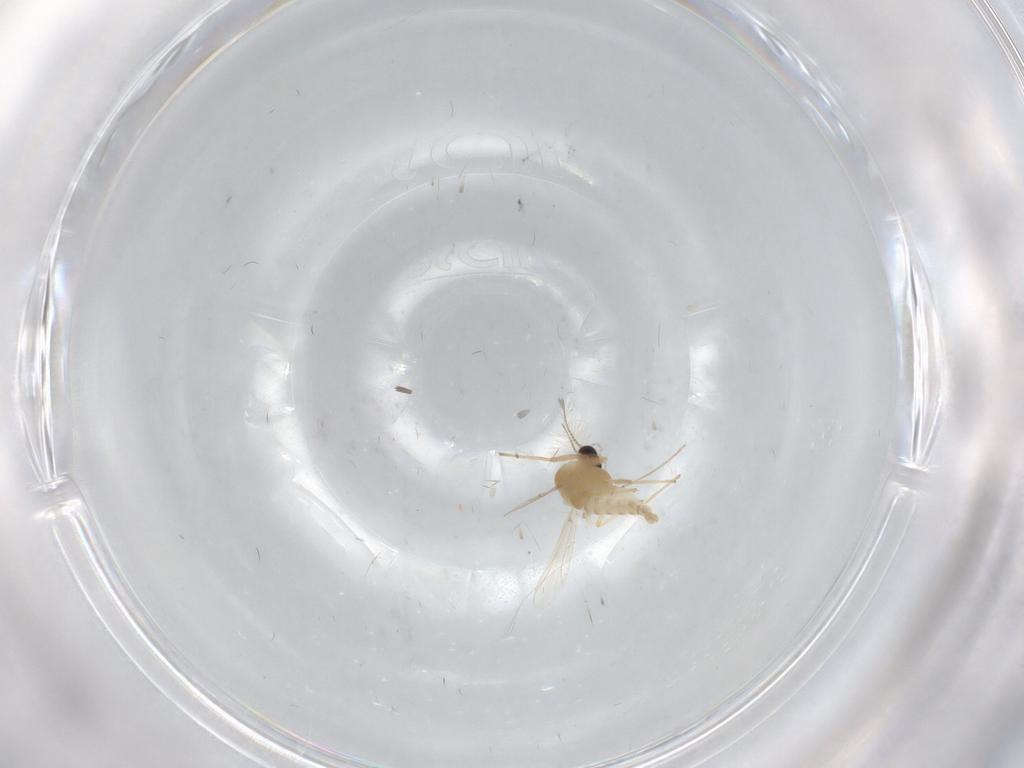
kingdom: Animalia
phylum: Arthropoda
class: Insecta
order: Diptera
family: Chironomidae
